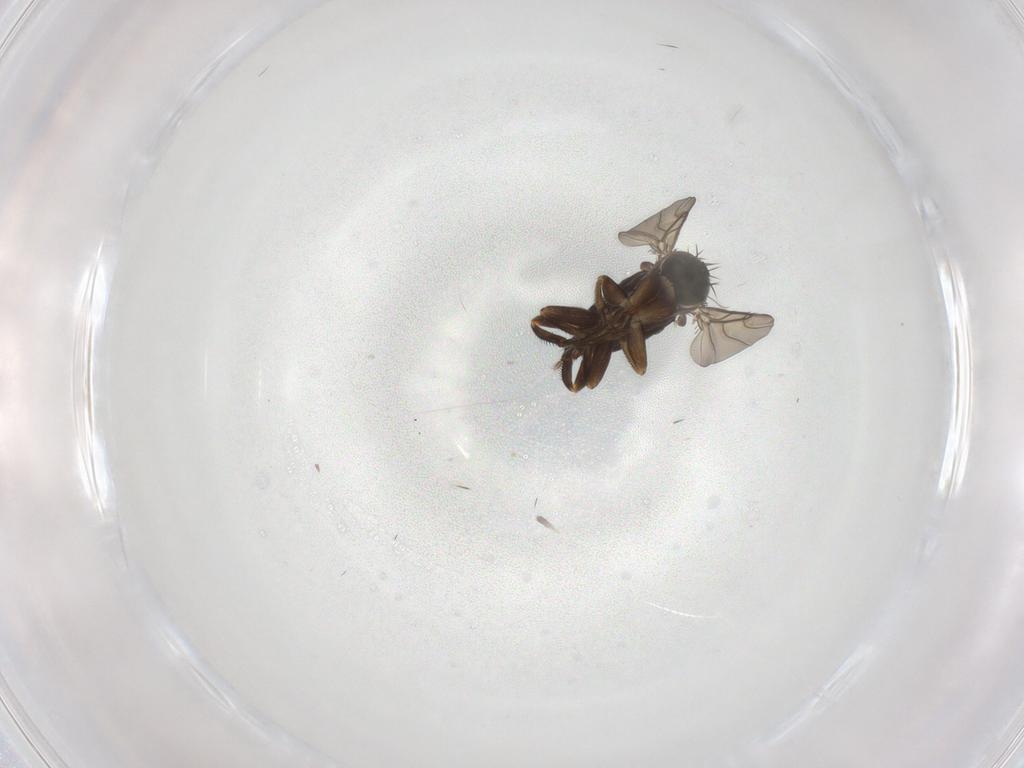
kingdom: Animalia
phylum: Arthropoda
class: Insecta
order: Diptera
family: Phoridae
